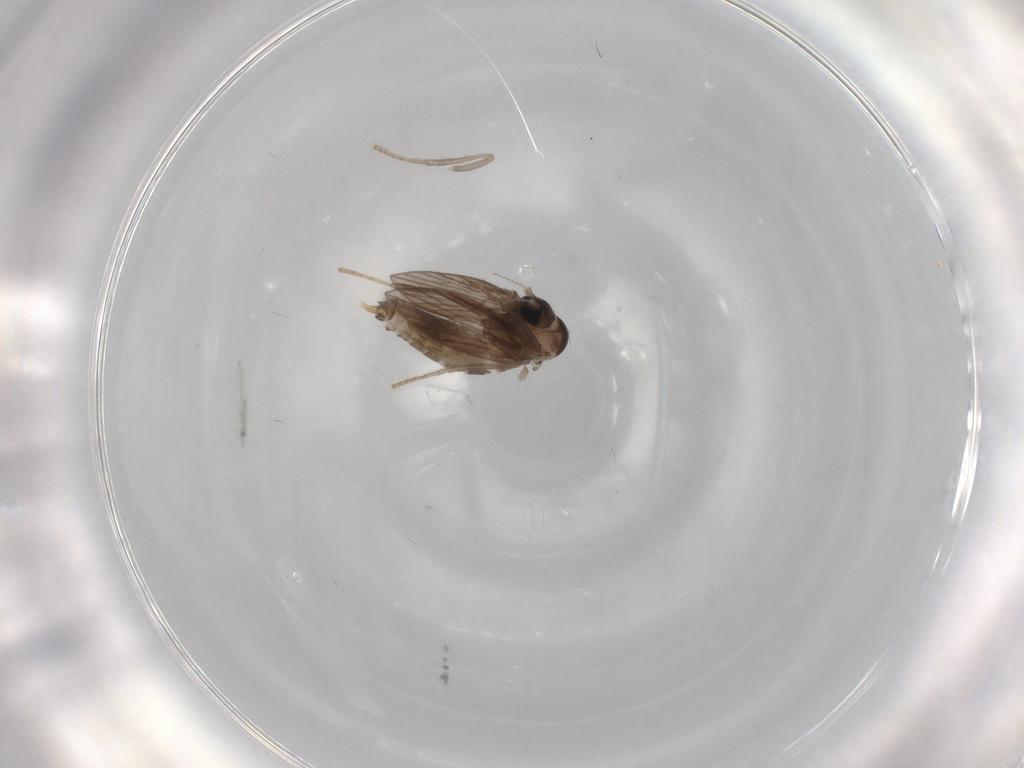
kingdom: Animalia
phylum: Arthropoda
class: Insecta
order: Diptera
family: Psychodidae
